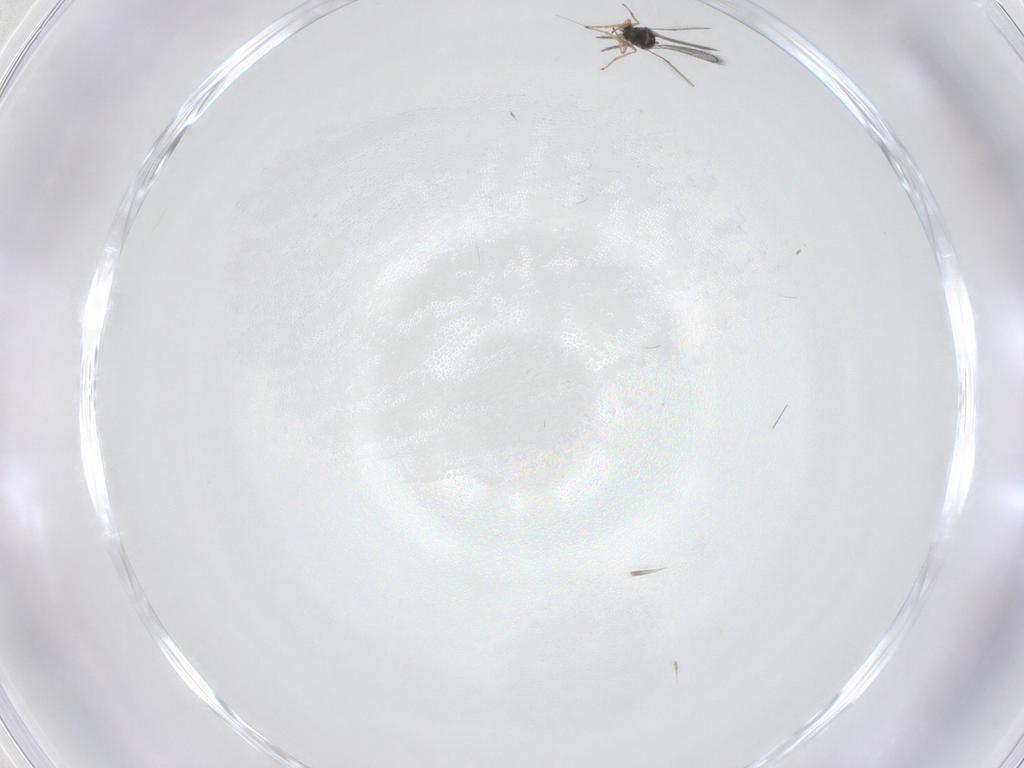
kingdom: Animalia
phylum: Arthropoda
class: Insecta
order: Hymenoptera
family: Eulophidae
